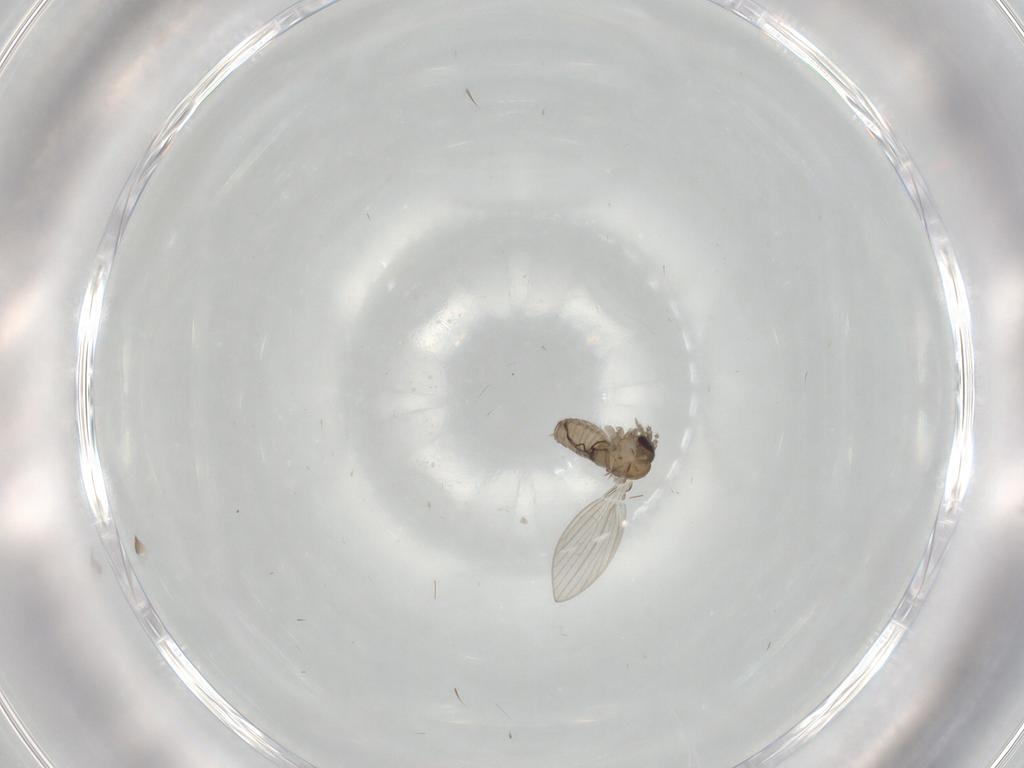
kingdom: Animalia
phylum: Arthropoda
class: Insecta
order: Diptera
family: Psychodidae
